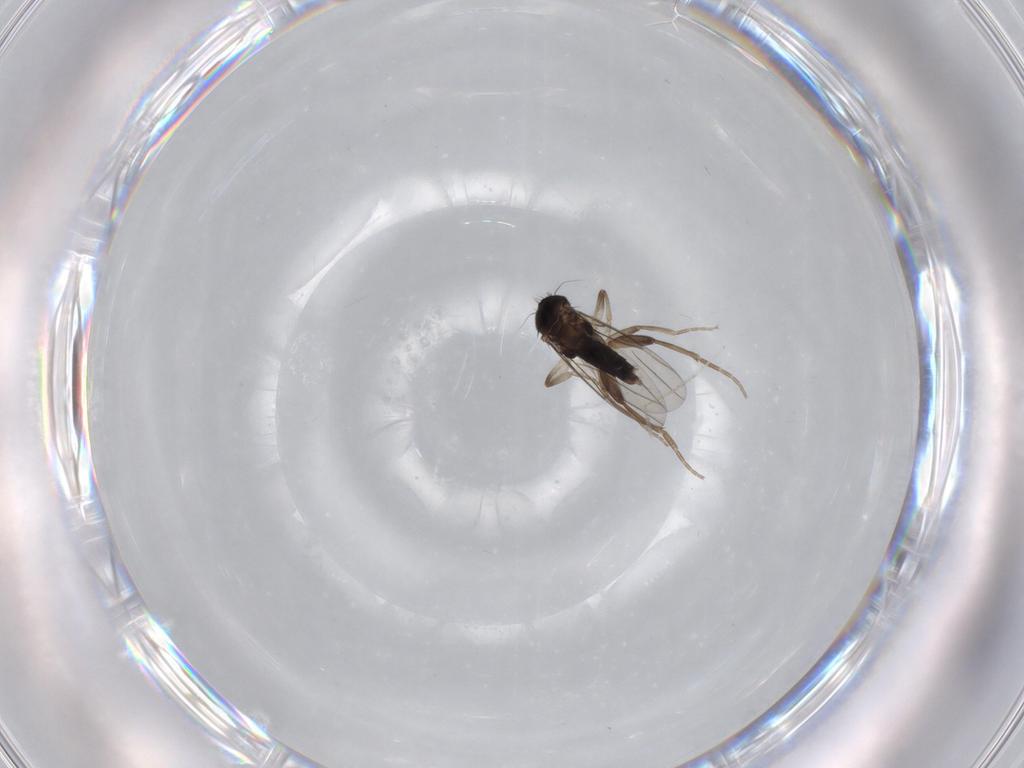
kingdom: Animalia
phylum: Arthropoda
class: Insecta
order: Diptera
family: Phoridae
